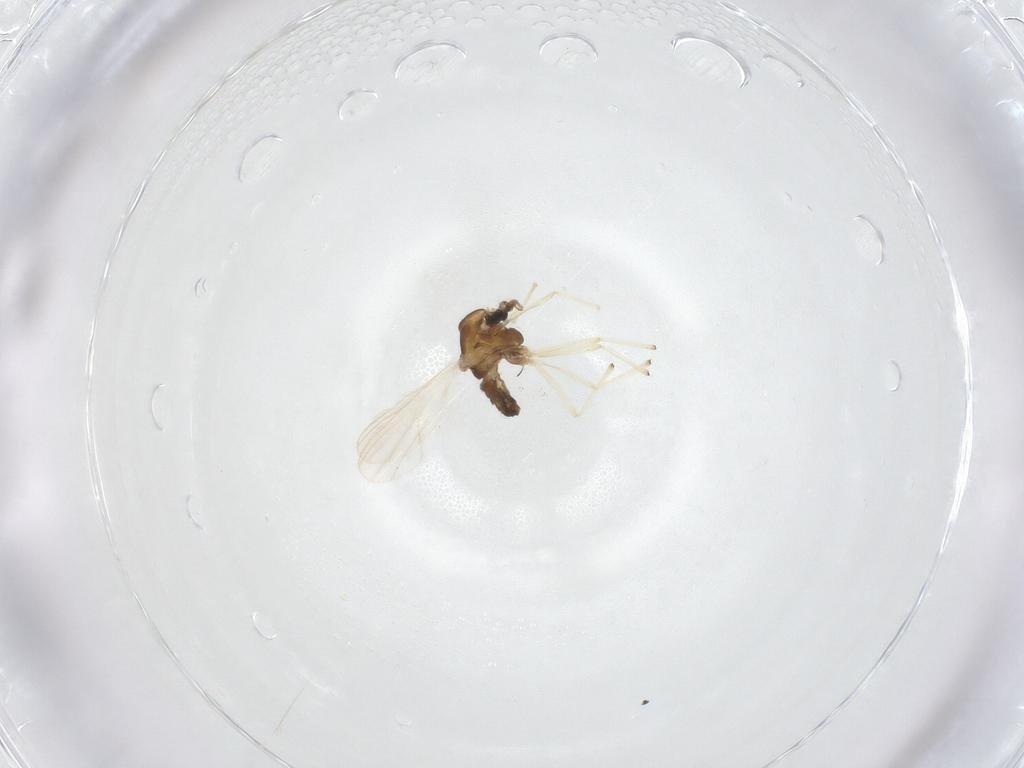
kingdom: Animalia
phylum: Arthropoda
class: Insecta
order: Diptera
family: Chironomidae
